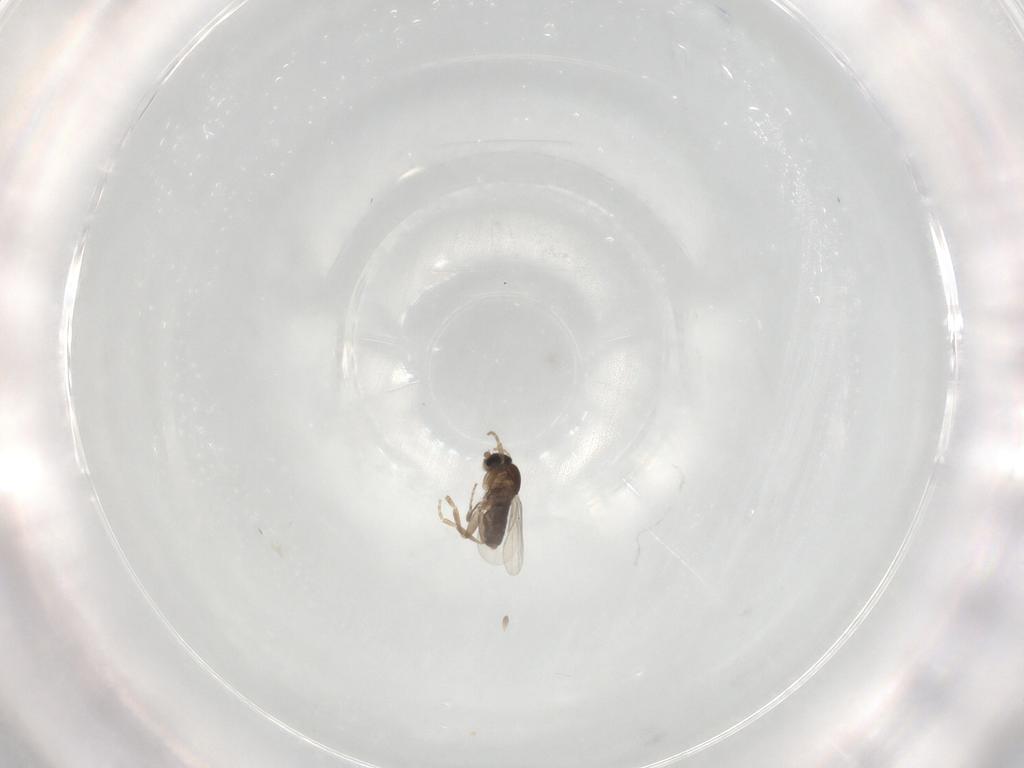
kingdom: Animalia
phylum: Arthropoda
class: Insecta
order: Diptera
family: Phoridae
